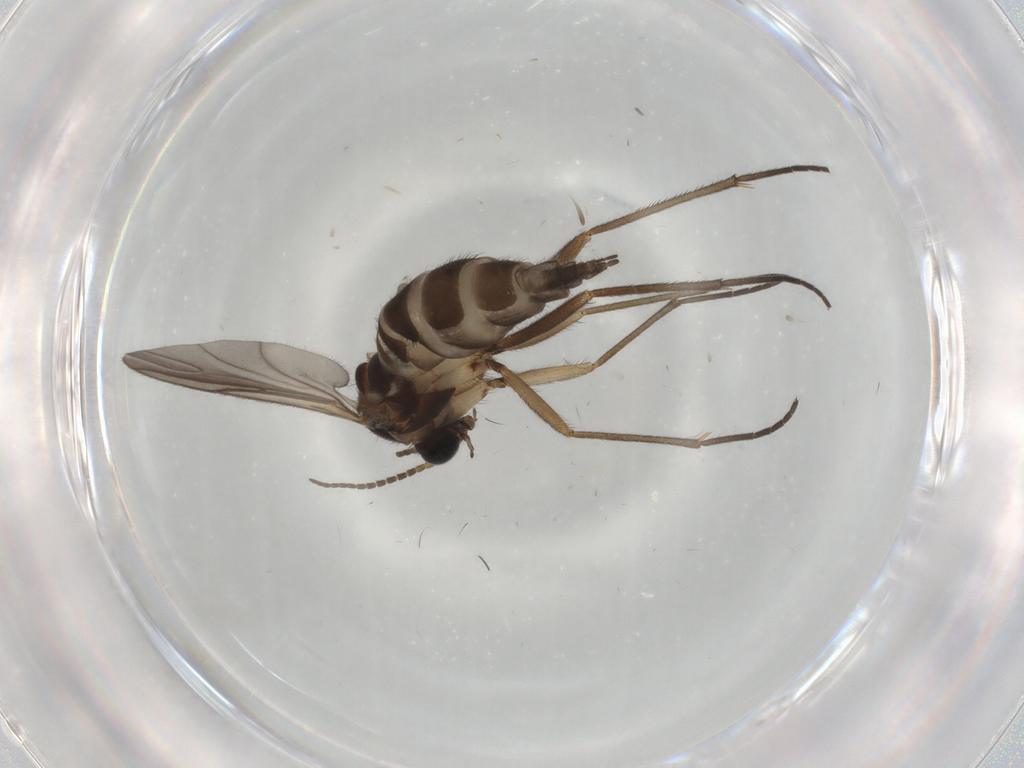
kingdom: Animalia
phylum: Arthropoda
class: Insecta
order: Diptera
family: Sciaridae
